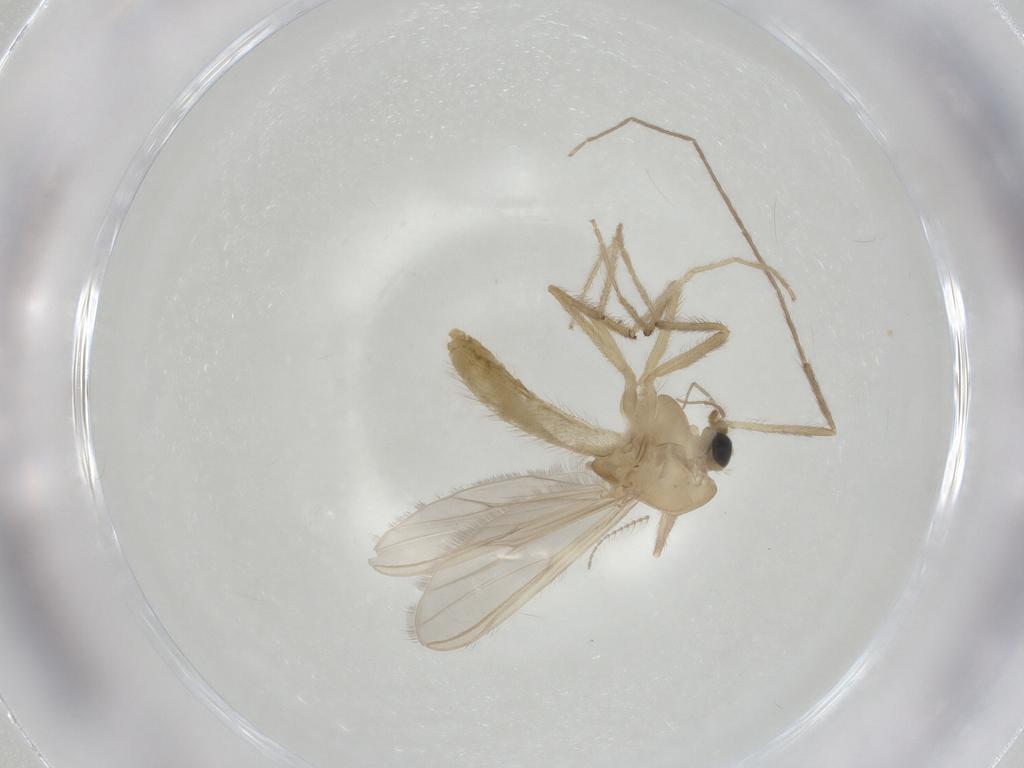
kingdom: Animalia
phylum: Arthropoda
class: Insecta
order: Diptera
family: Chironomidae
